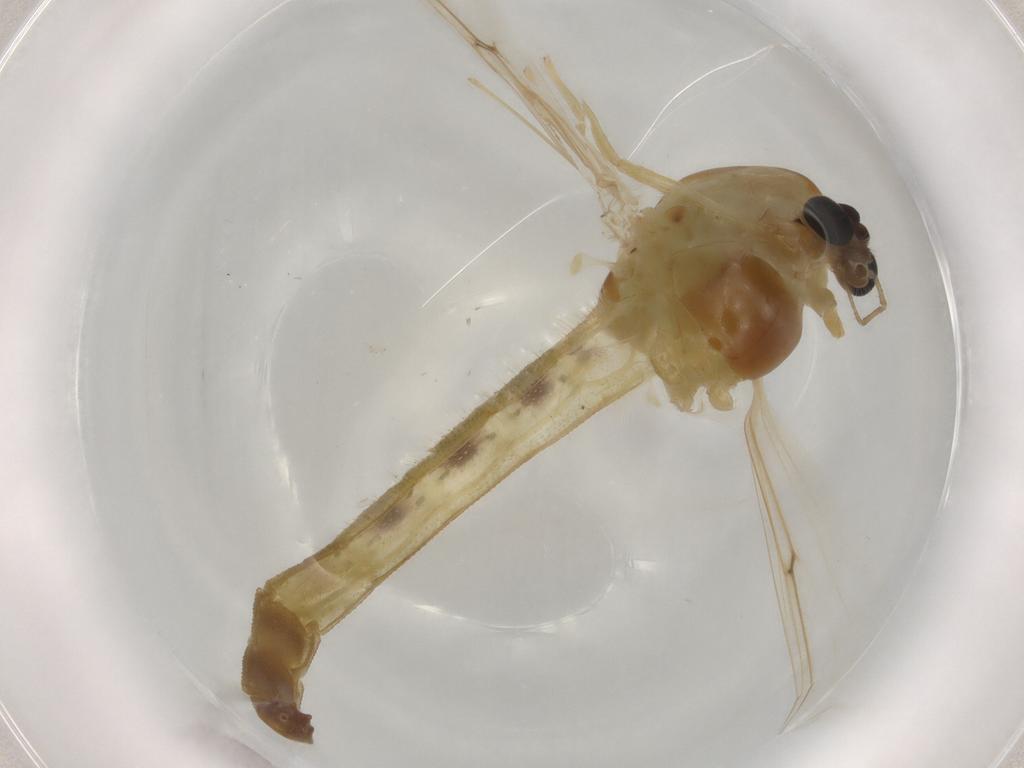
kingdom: Animalia
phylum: Arthropoda
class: Insecta
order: Diptera
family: Cecidomyiidae
